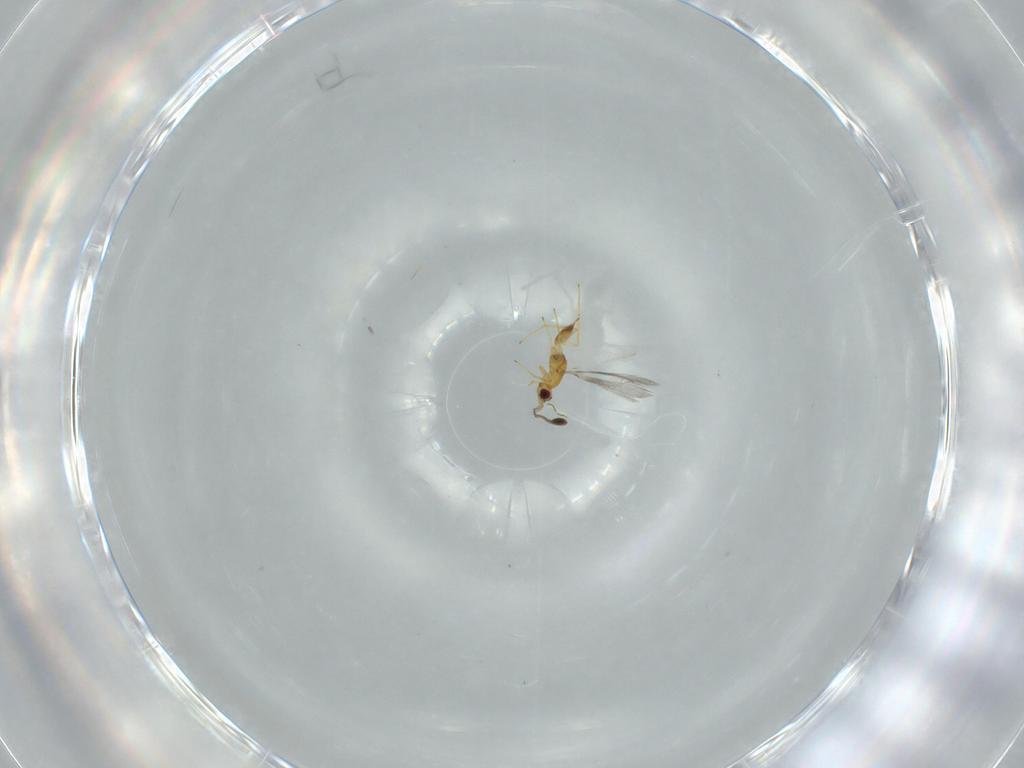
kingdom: Animalia
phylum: Arthropoda
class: Insecta
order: Hymenoptera
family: Mymaridae
